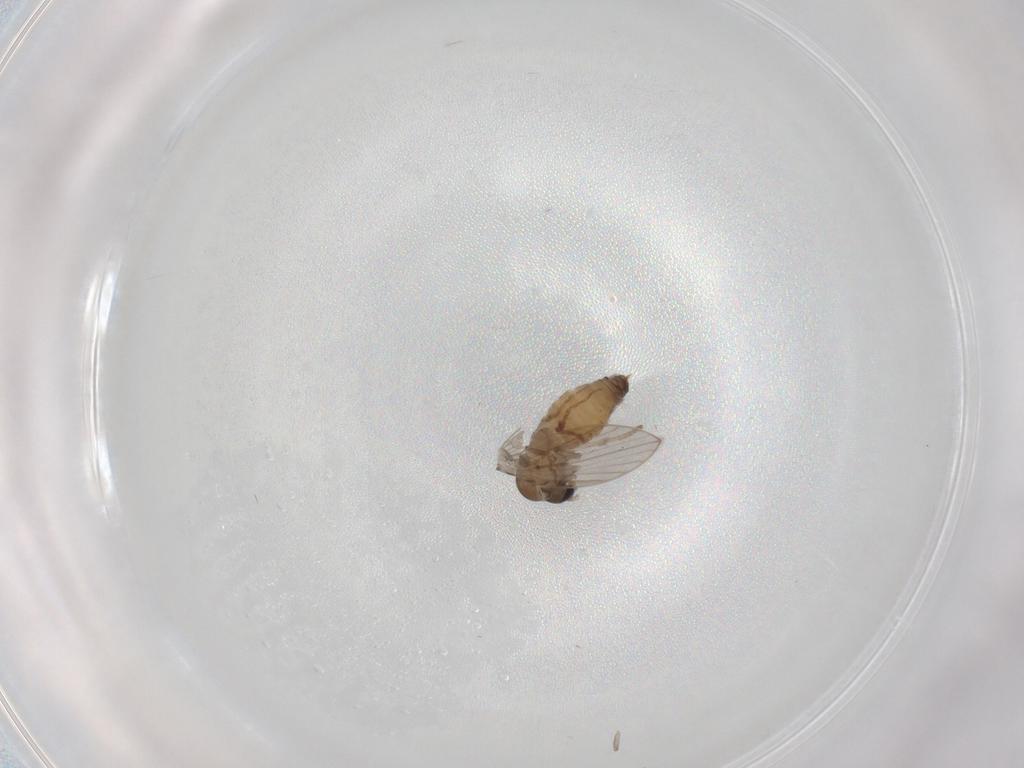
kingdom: Animalia
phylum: Arthropoda
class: Insecta
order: Diptera
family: Psychodidae
